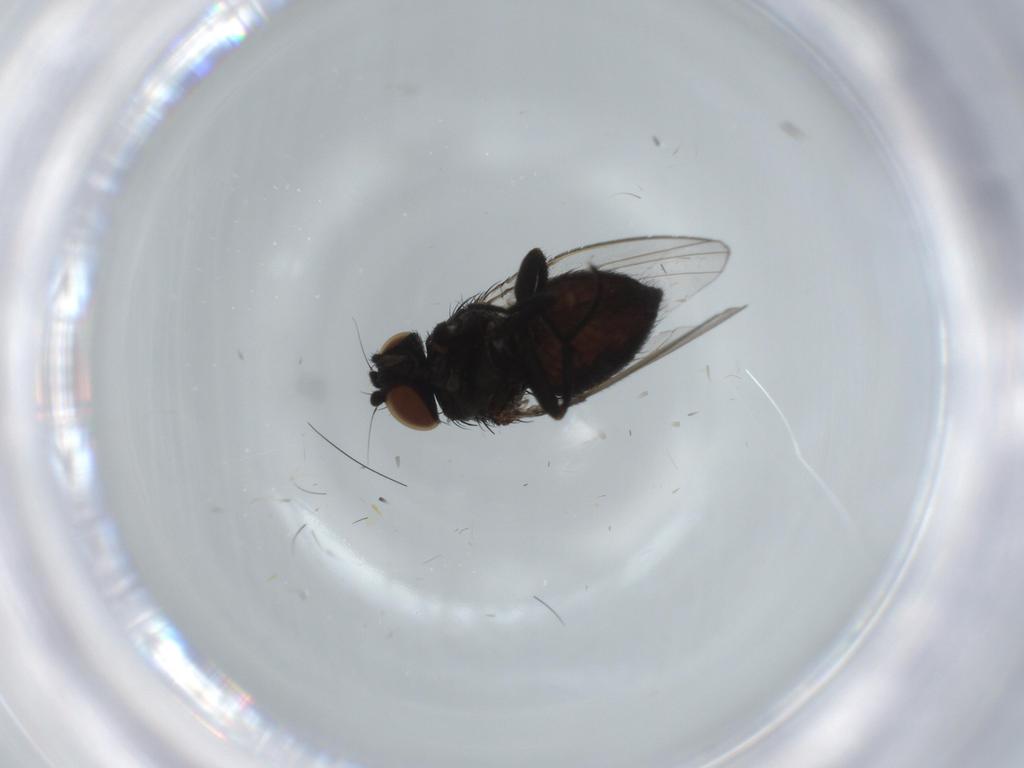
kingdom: Animalia
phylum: Arthropoda
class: Insecta
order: Diptera
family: Milichiidae
